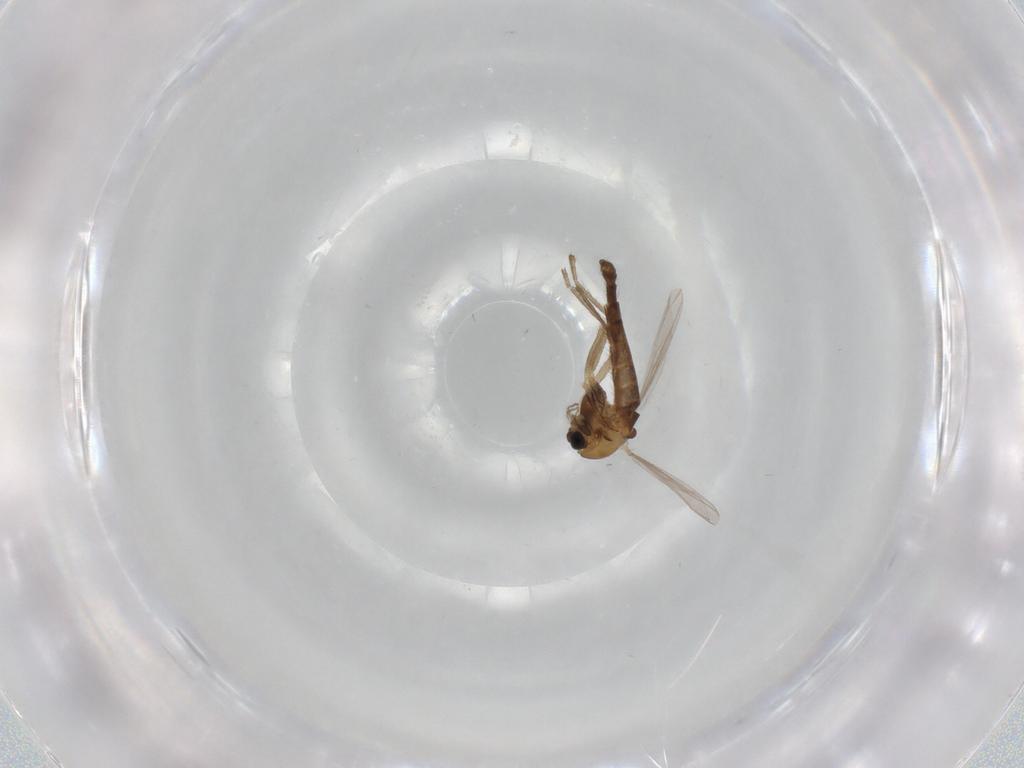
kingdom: Animalia
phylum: Arthropoda
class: Insecta
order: Diptera
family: Chironomidae
